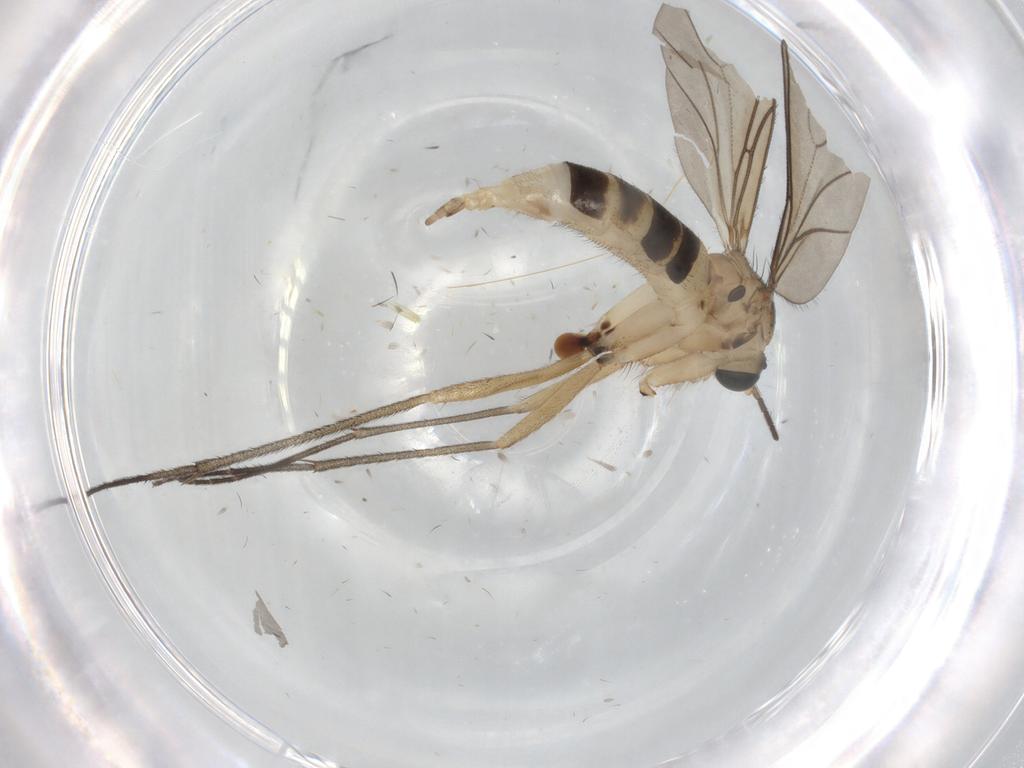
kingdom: Animalia
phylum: Arthropoda
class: Insecta
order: Diptera
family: Sciaridae
